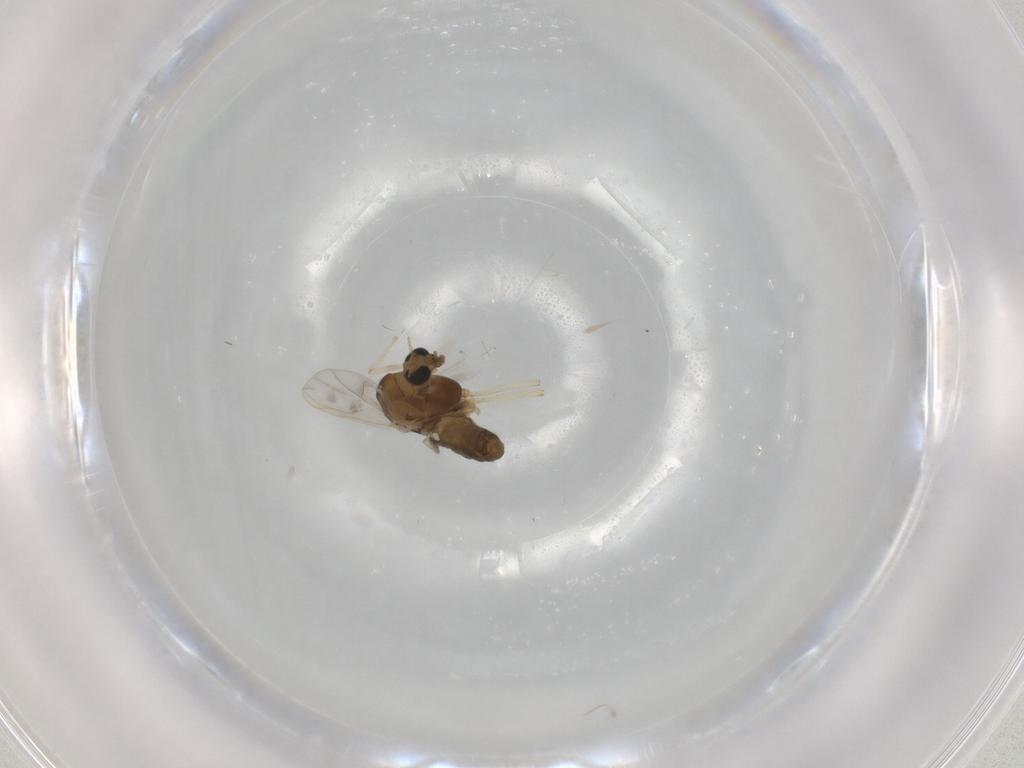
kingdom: Animalia
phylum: Arthropoda
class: Insecta
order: Diptera
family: Chironomidae
